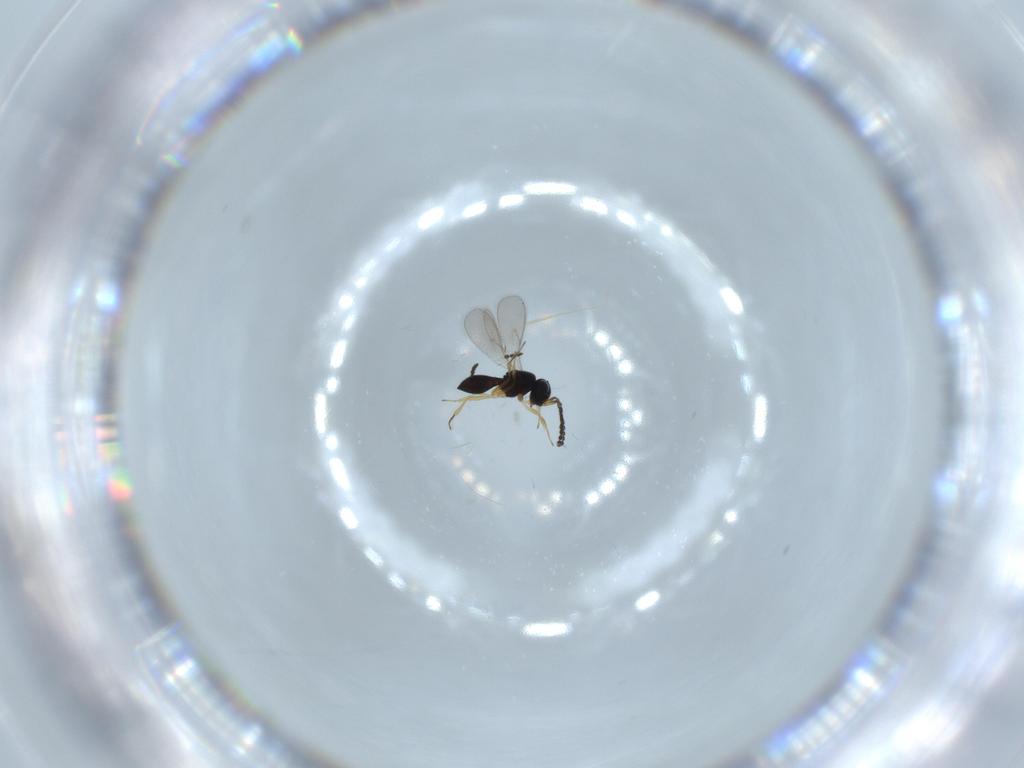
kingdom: Animalia
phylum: Arthropoda
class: Insecta
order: Hymenoptera
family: Scelionidae
